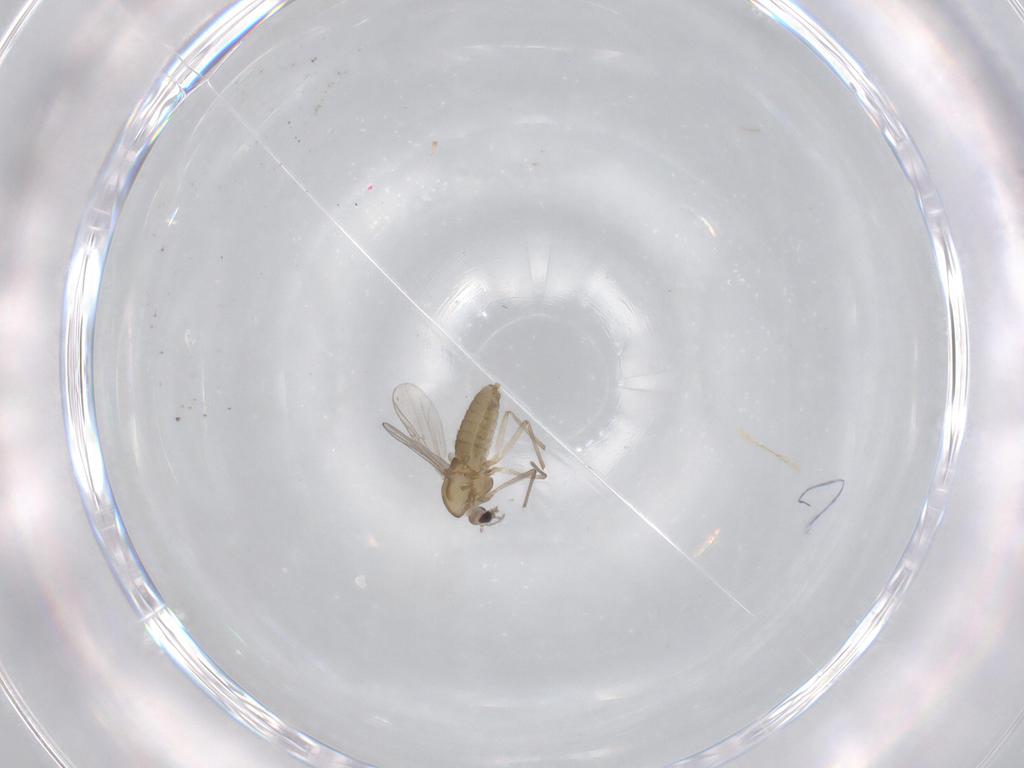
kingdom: Animalia
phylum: Arthropoda
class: Insecta
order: Diptera
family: Chironomidae
